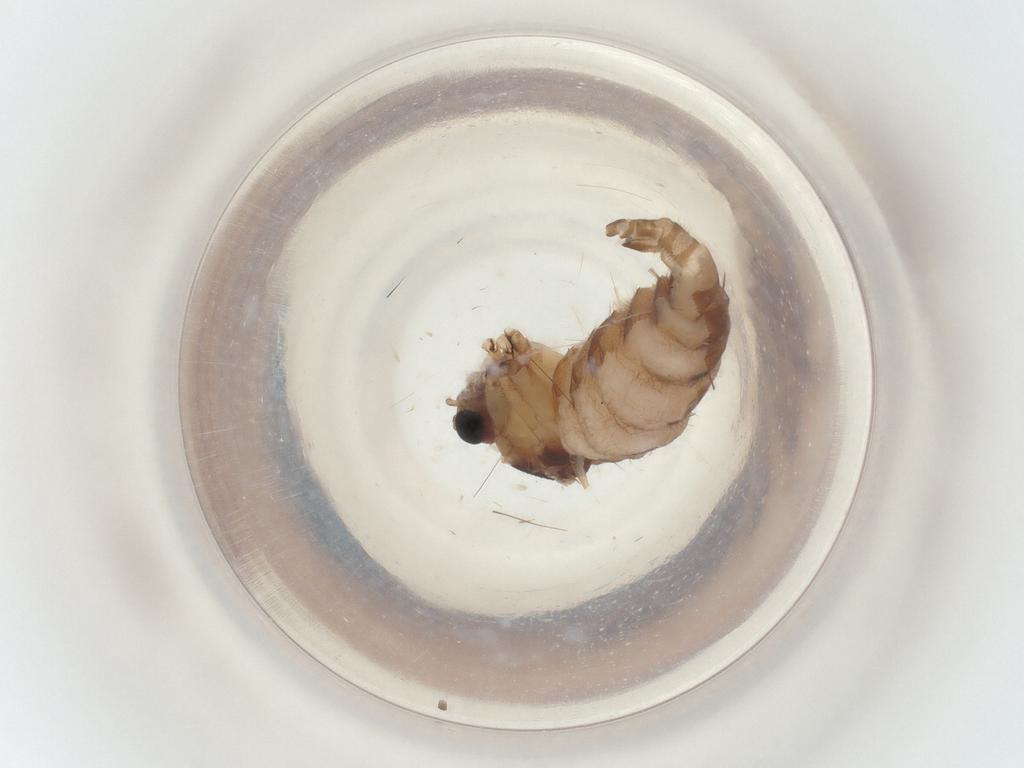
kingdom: Animalia
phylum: Arthropoda
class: Insecta
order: Diptera
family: Sciaridae
